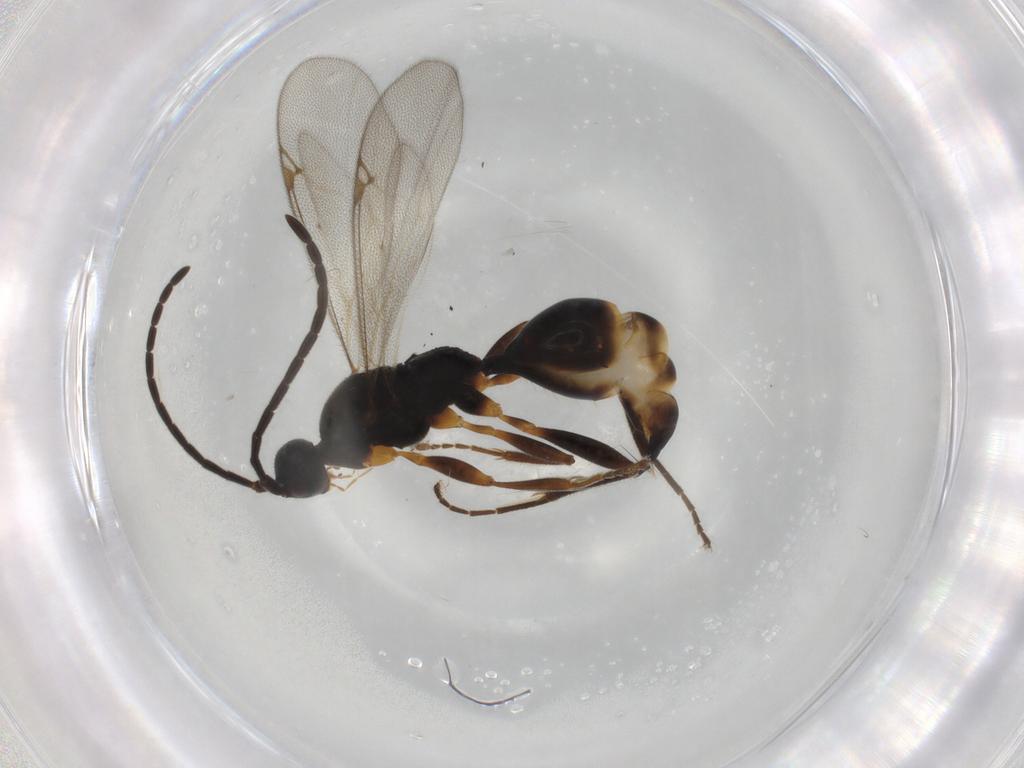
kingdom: Animalia
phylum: Arthropoda
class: Insecta
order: Hymenoptera
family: Proctotrupidae
